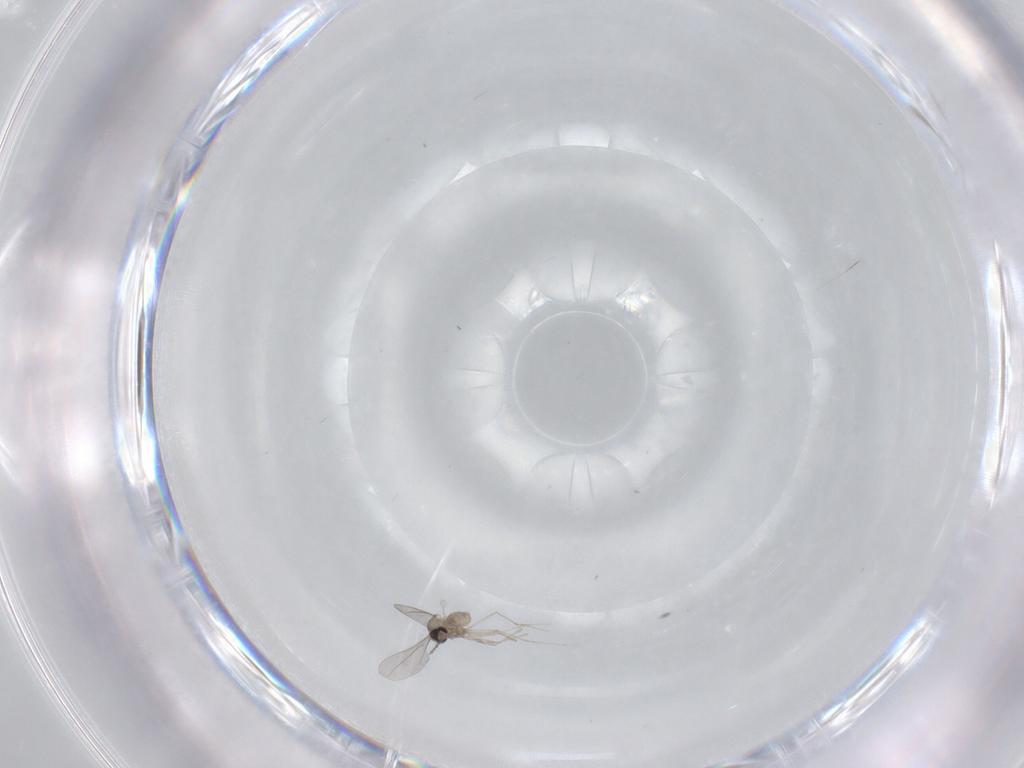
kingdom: Animalia
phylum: Arthropoda
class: Insecta
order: Diptera
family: Cecidomyiidae
